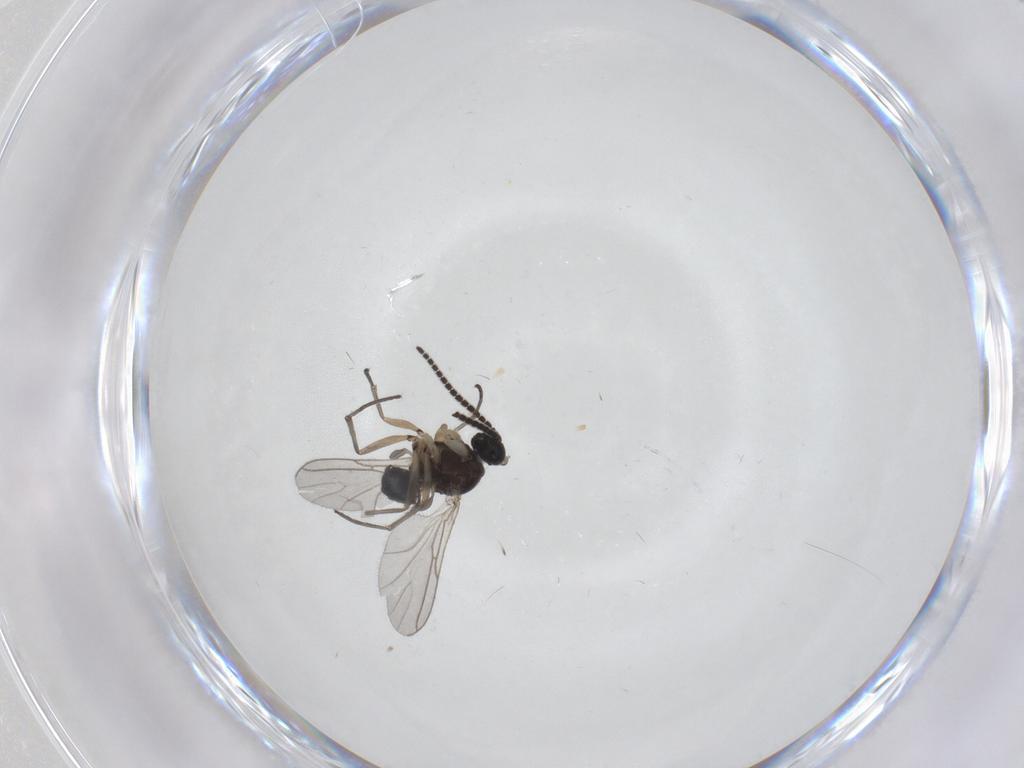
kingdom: Animalia
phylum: Arthropoda
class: Insecta
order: Diptera
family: Sciaridae
